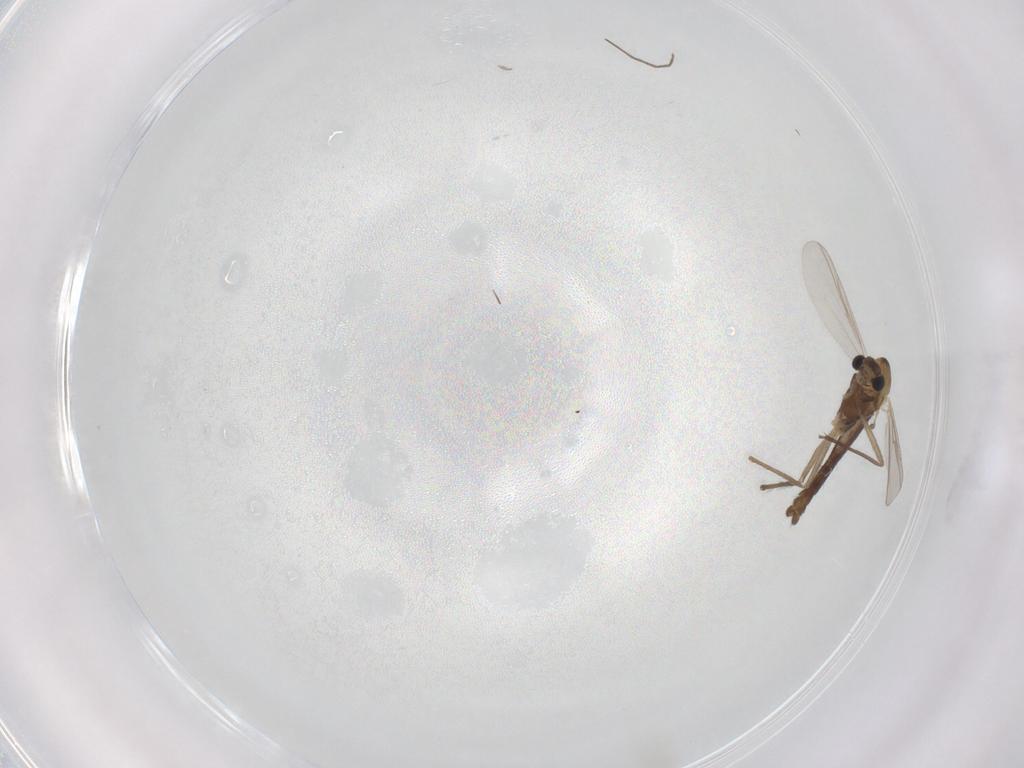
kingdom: Animalia
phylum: Arthropoda
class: Insecta
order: Diptera
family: Chironomidae
